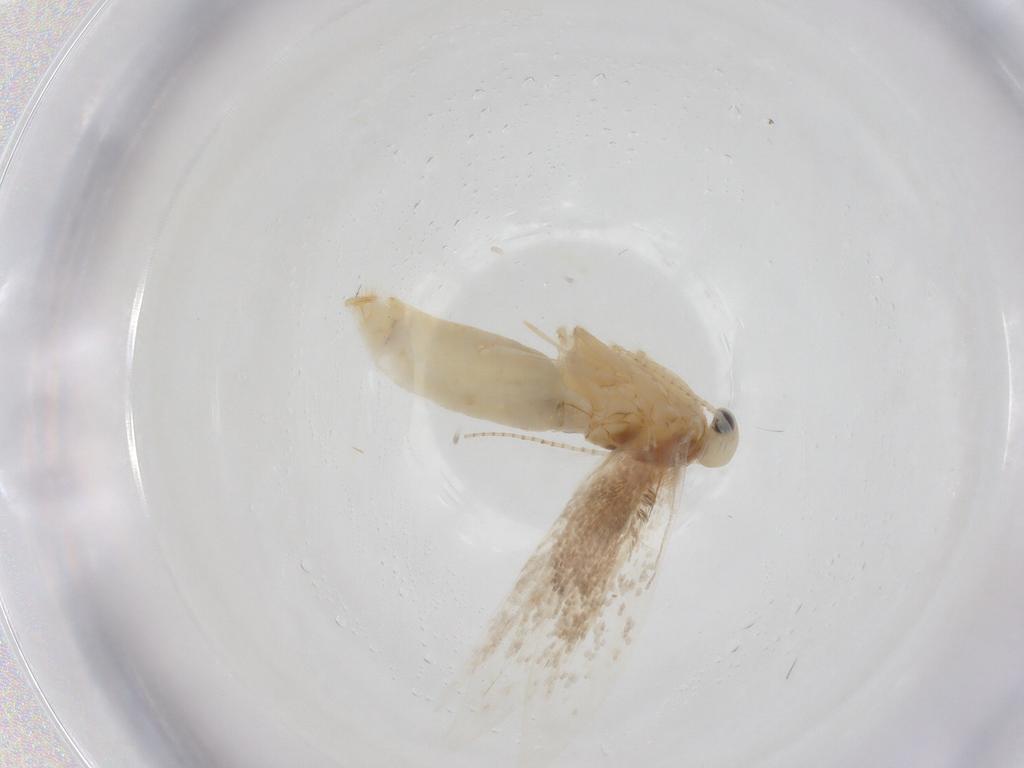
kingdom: Animalia
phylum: Arthropoda
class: Insecta
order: Lepidoptera
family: Gracillariidae
